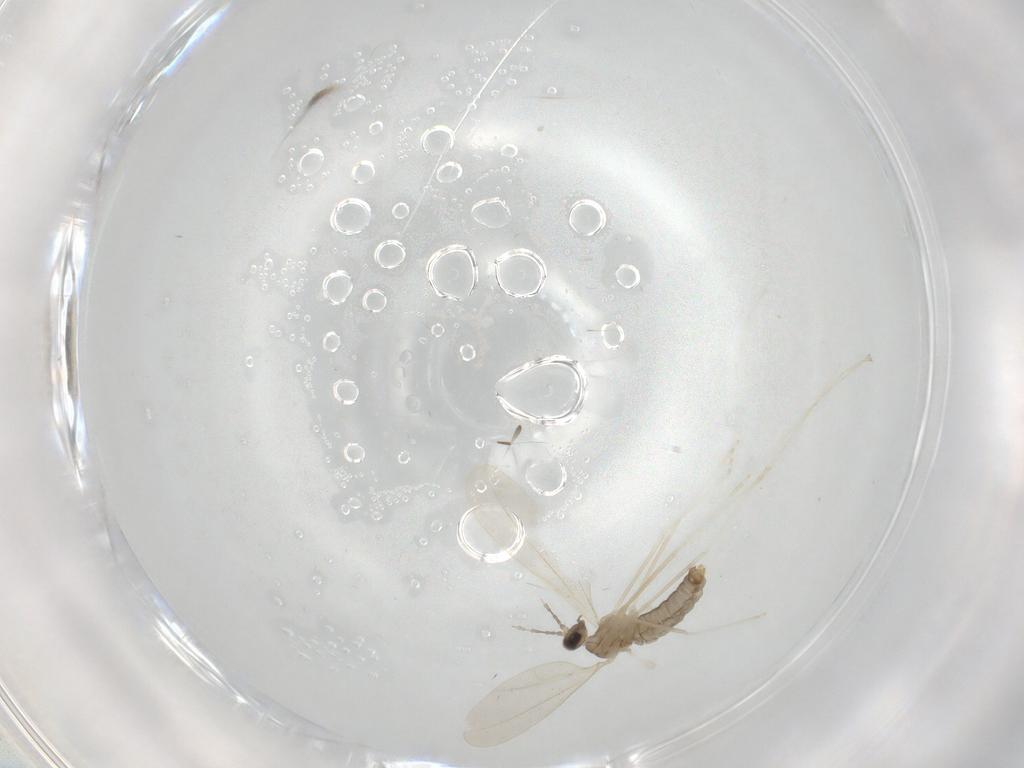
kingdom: Animalia
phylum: Arthropoda
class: Insecta
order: Diptera
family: Cecidomyiidae
